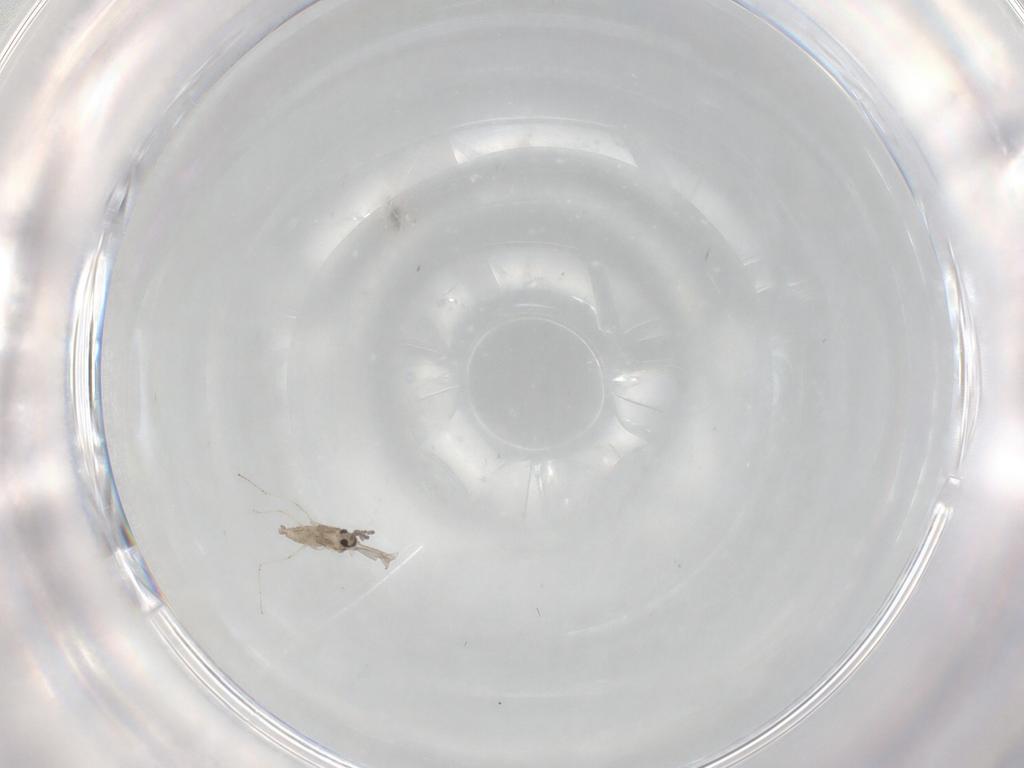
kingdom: Animalia
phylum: Arthropoda
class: Insecta
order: Diptera
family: Cecidomyiidae
